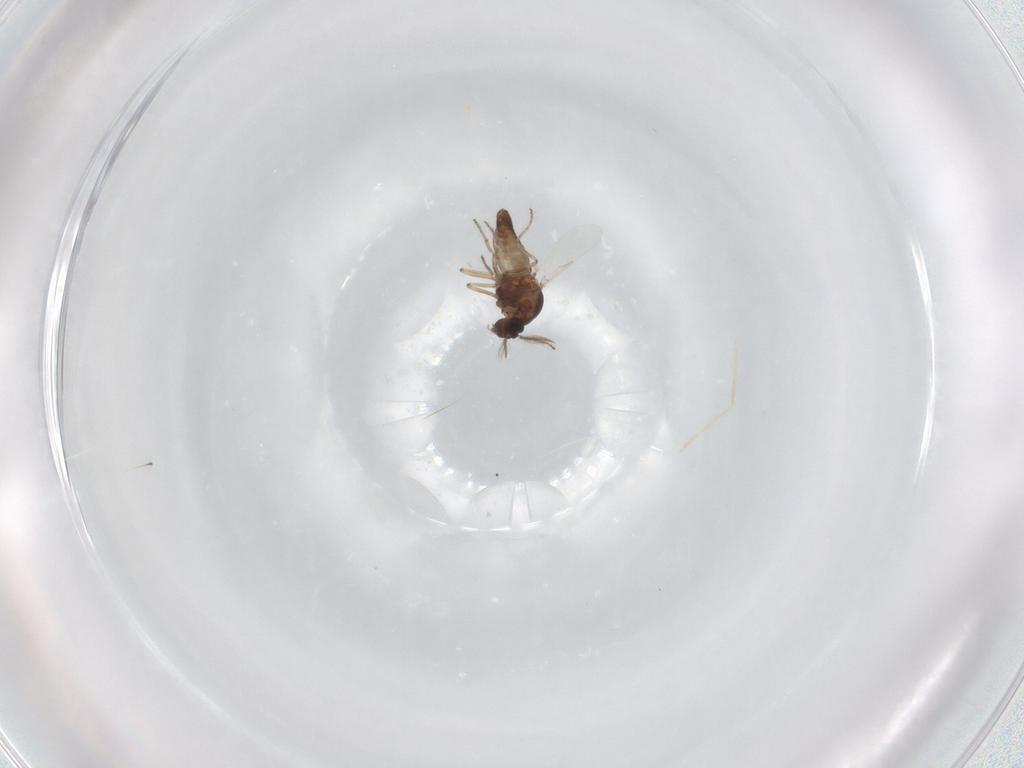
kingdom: Animalia
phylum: Arthropoda
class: Insecta
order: Diptera
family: Ceratopogonidae
